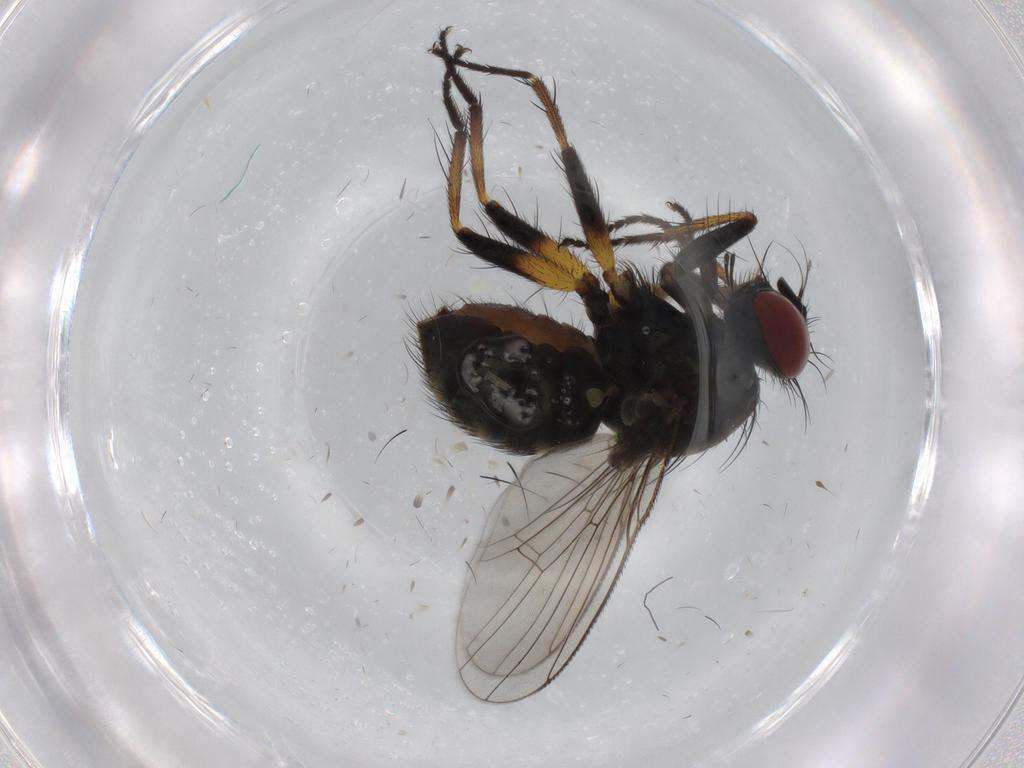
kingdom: Animalia
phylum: Arthropoda
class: Insecta
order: Diptera
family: Muscidae
